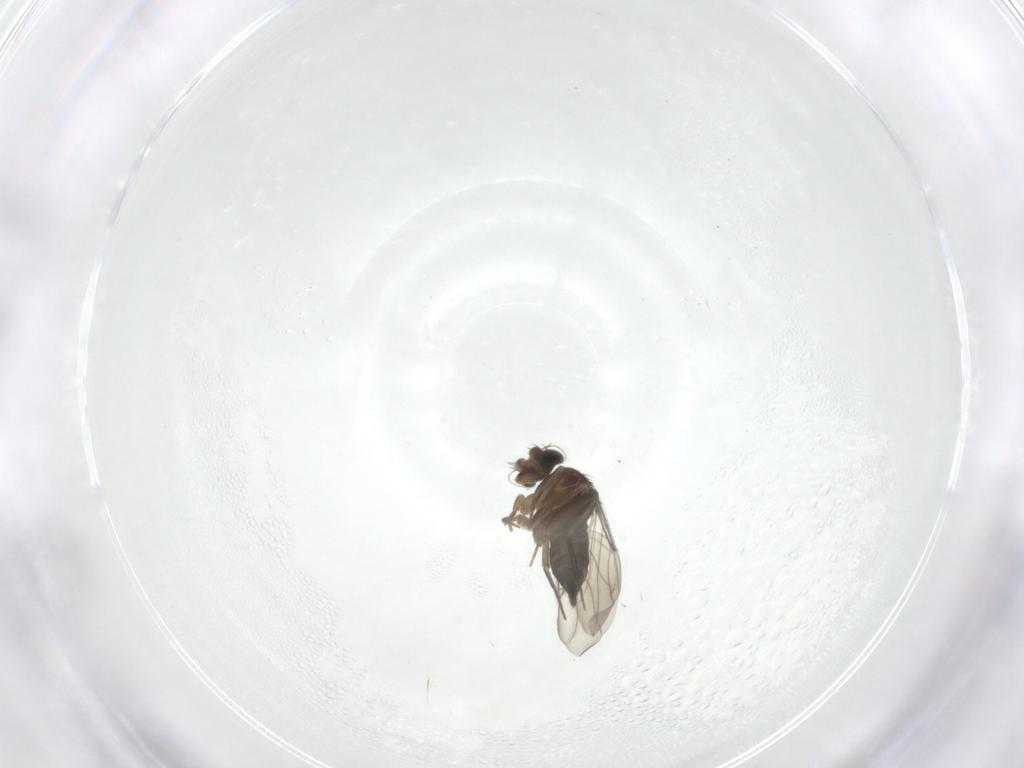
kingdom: Animalia
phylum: Arthropoda
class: Insecta
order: Diptera
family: Phoridae
